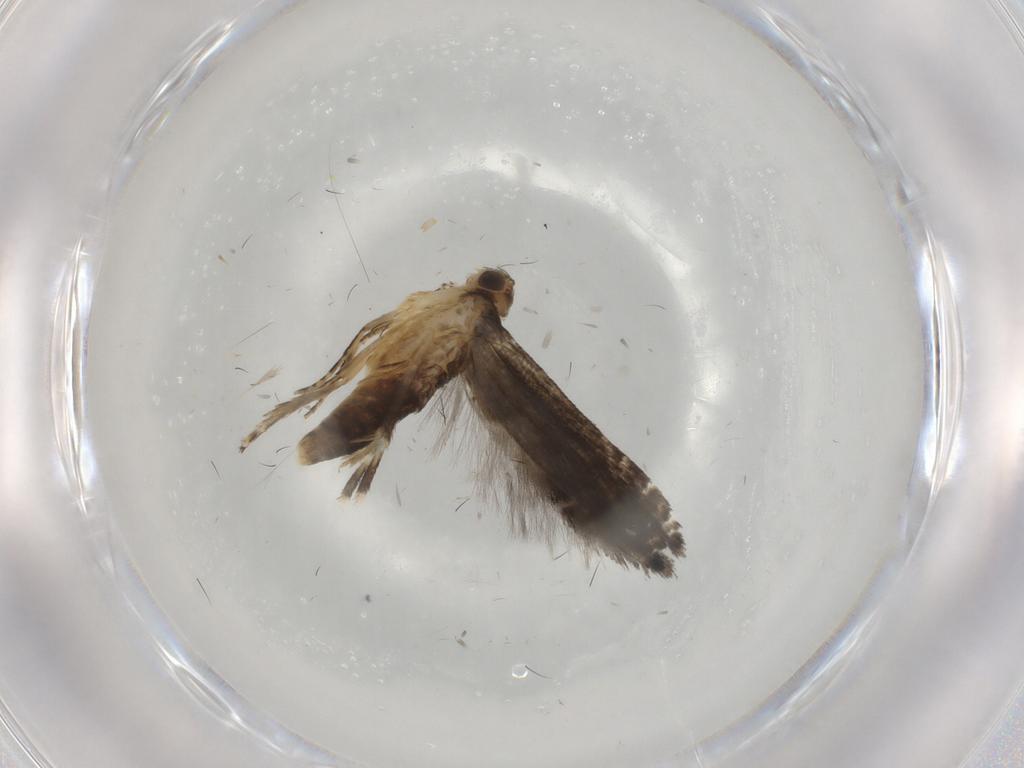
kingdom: Animalia
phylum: Arthropoda
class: Insecta
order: Lepidoptera
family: Glyphipterigidae
